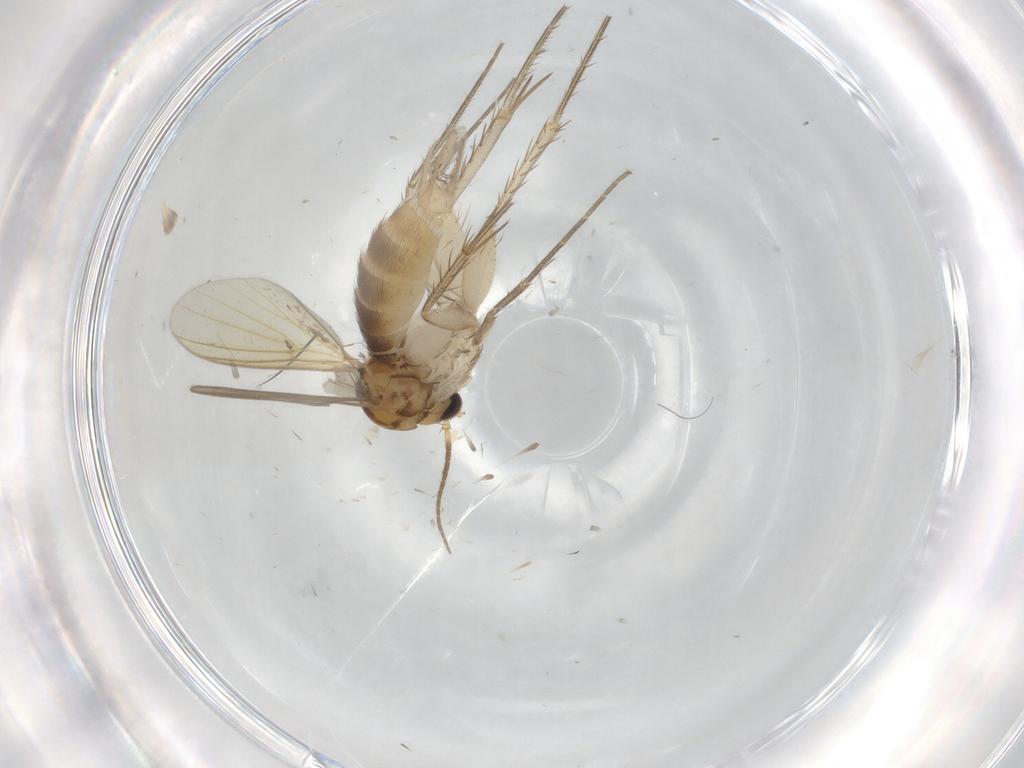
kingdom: Animalia
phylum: Arthropoda
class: Insecta
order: Diptera
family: Mycetophilidae
